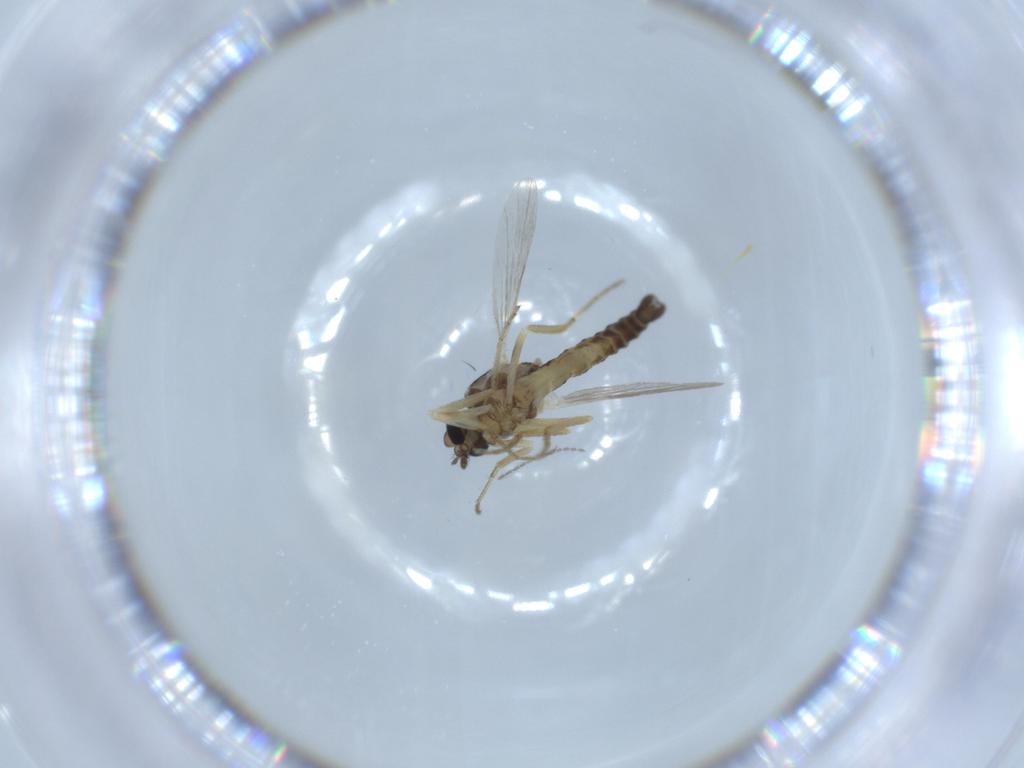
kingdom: Animalia
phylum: Arthropoda
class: Insecta
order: Diptera
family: Ceratopogonidae
